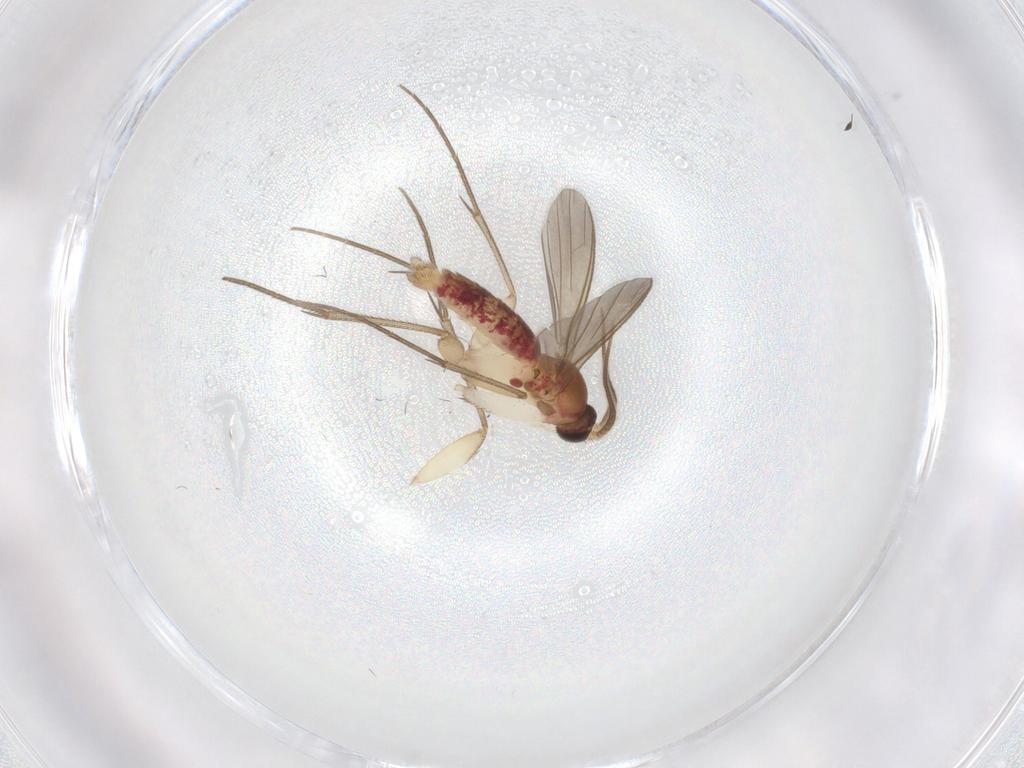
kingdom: Animalia
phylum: Arthropoda
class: Insecta
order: Diptera
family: Mycetophilidae
